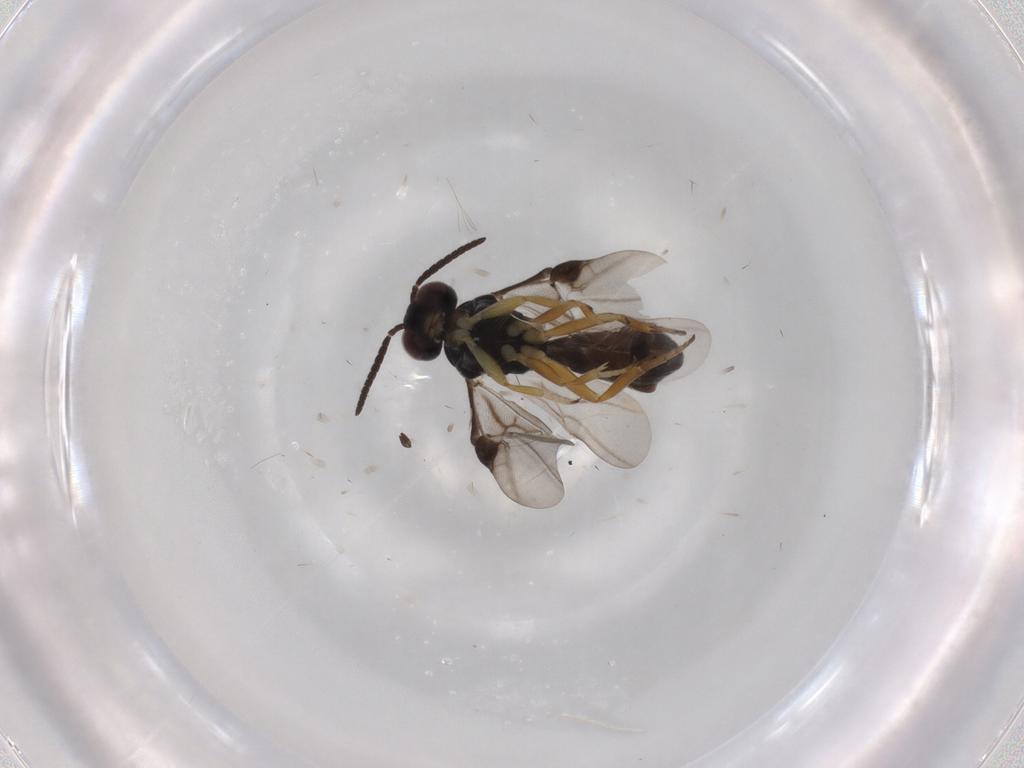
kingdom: Animalia
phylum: Arthropoda
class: Insecta
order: Hymenoptera
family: Braconidae
